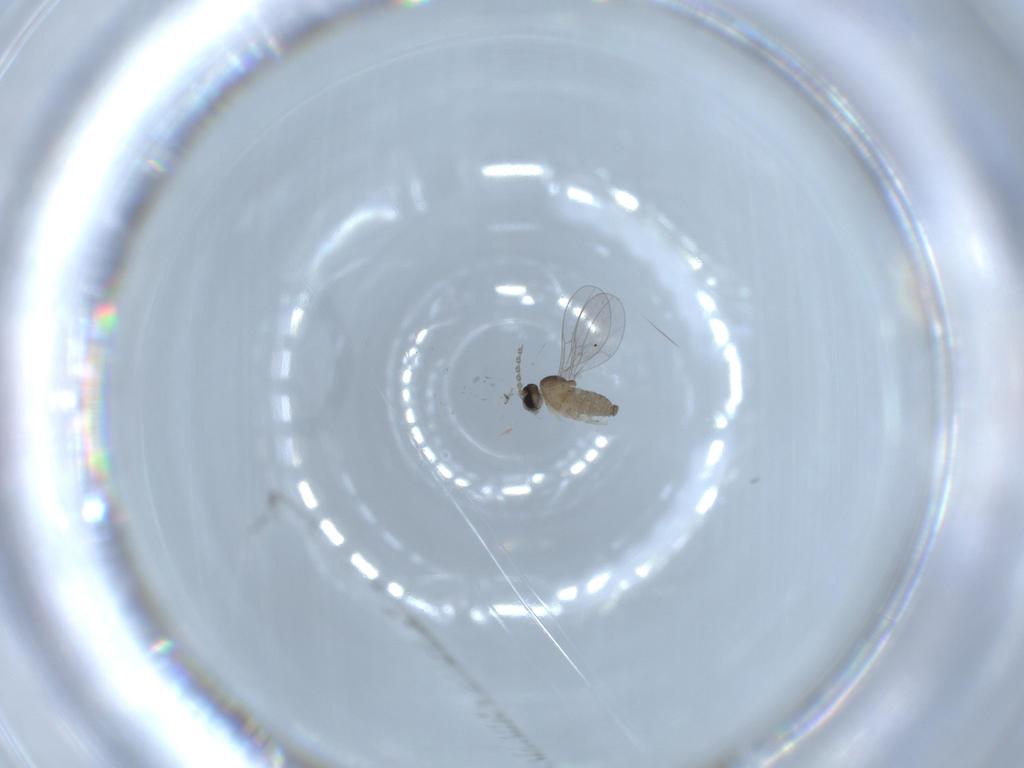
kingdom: Animalia
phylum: Arthropoda
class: Insecta
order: Diptera
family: Cecidomyiidae
